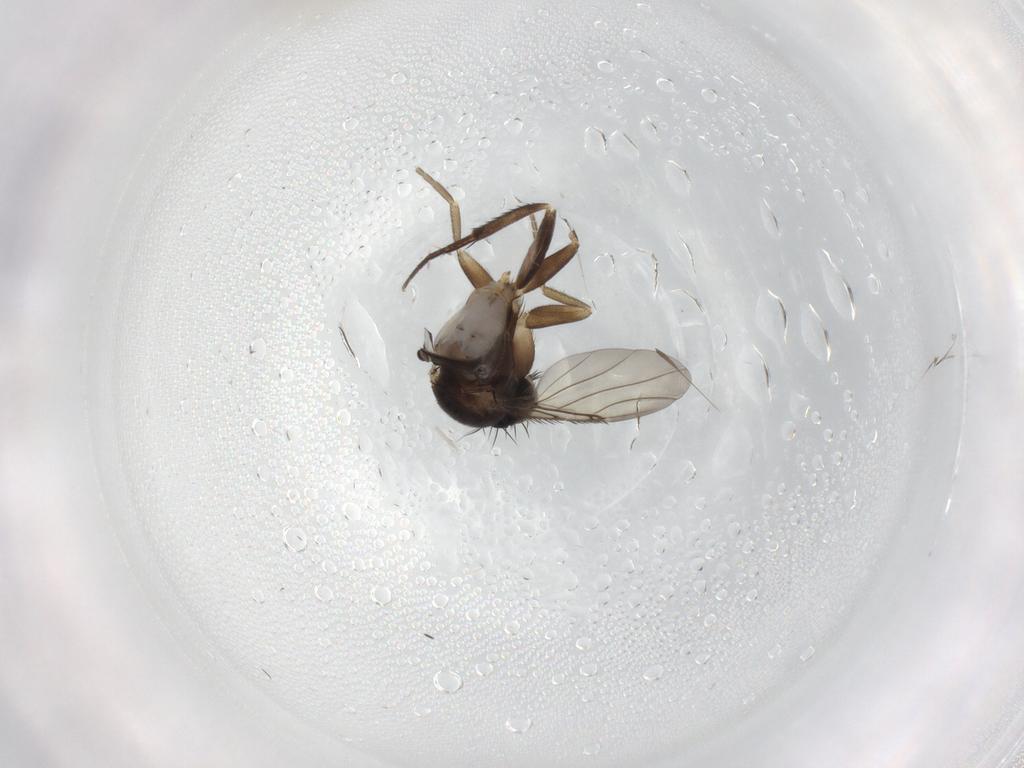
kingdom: Animalia
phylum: Arthropoda
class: Insecta
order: Diptera
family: Phoridae
